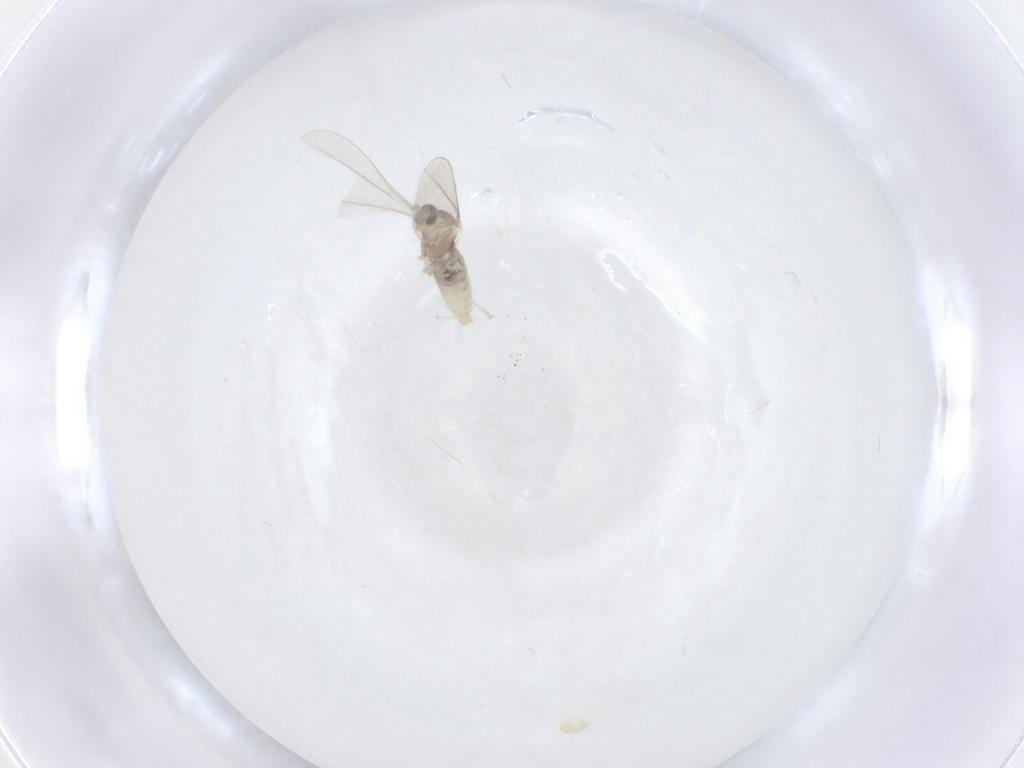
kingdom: Animalia
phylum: Arthropoda
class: Insecta
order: Diptera
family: Cecidomyiidae
